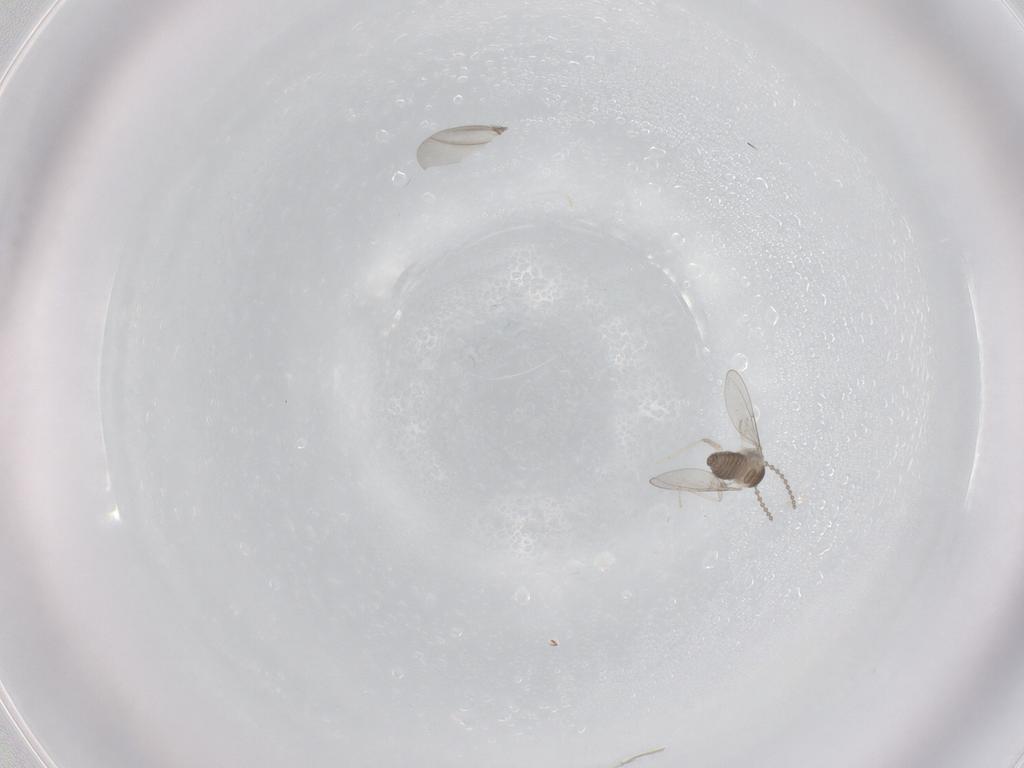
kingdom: Animalia
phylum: Arthropoda
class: Insecta
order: Diptera
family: Cecidomyiidae
